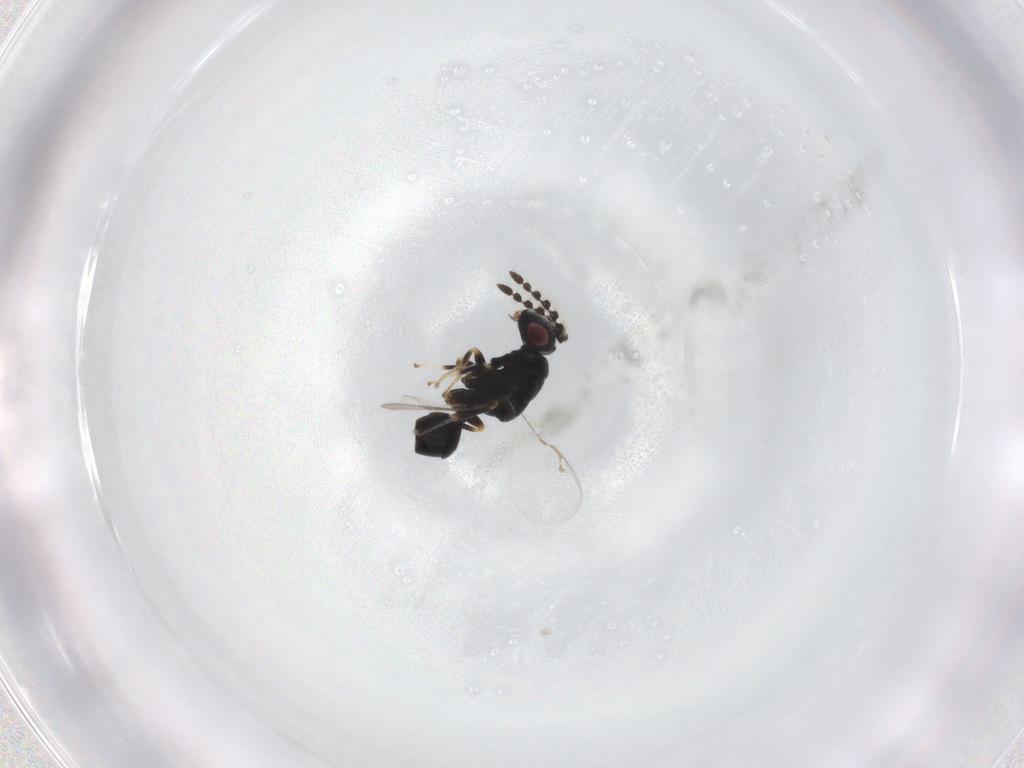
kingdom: Animalia
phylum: Arthropoda
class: Insecta
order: Hymenoptera
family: Eurytomidae
